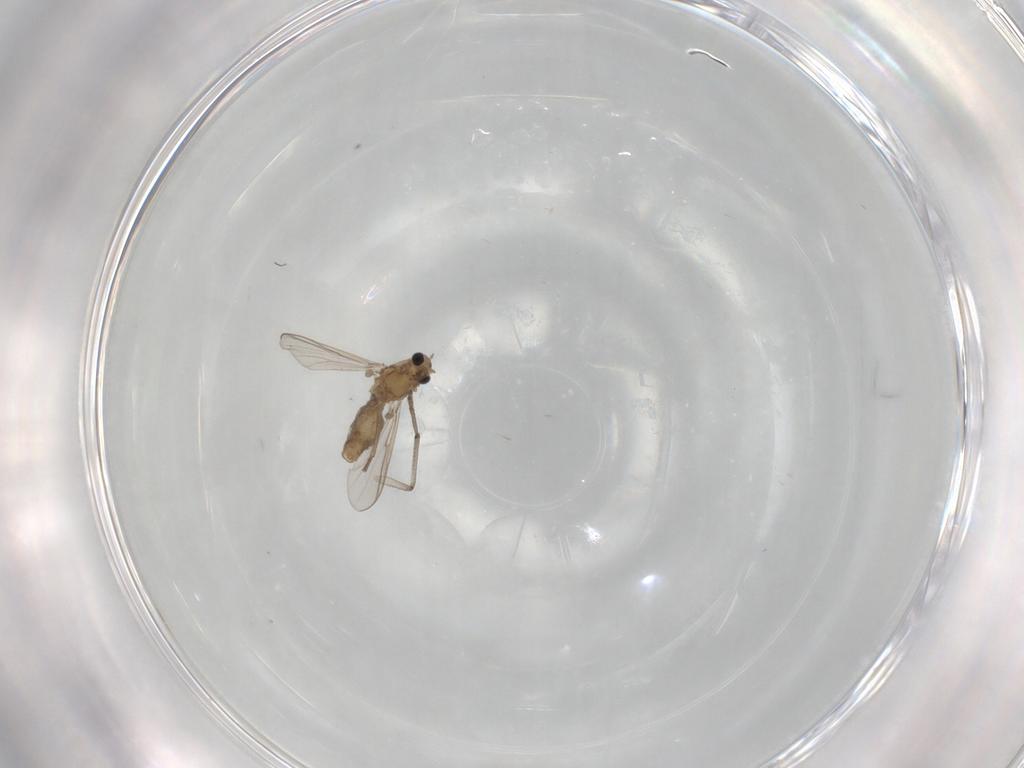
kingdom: Animalia
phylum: Arthropoda
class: Insecta
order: Diptera
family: Chironomidae
